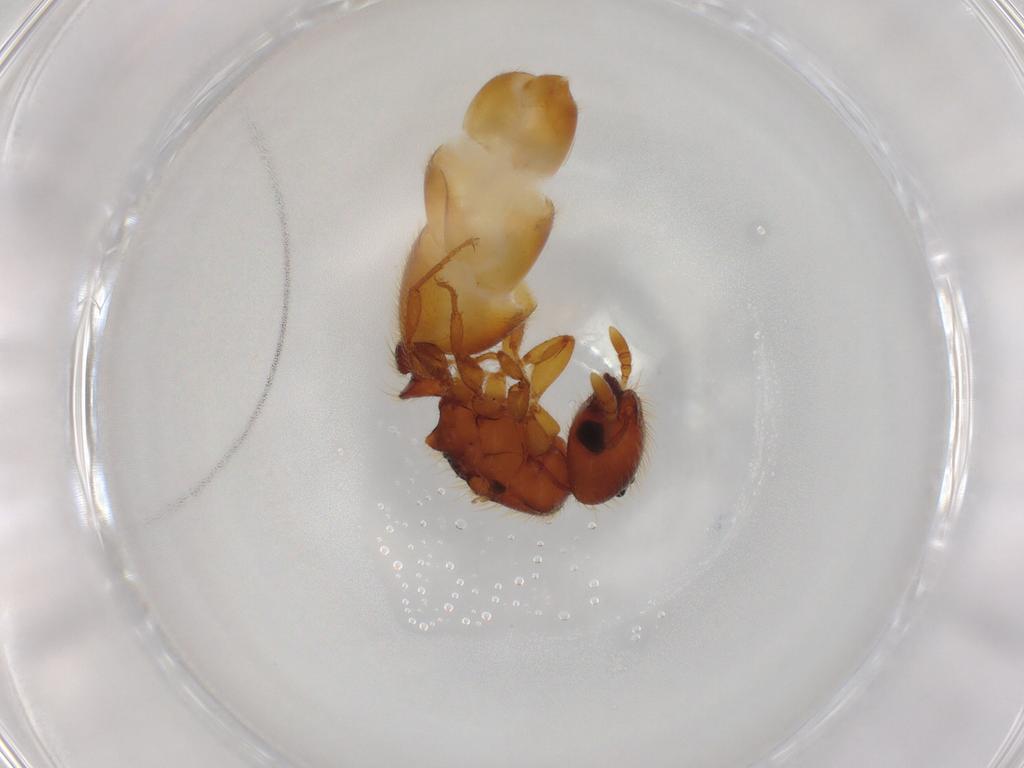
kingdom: Animalia
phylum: Arthropoda
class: Insecta
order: Hymenoptera
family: Formicidae
